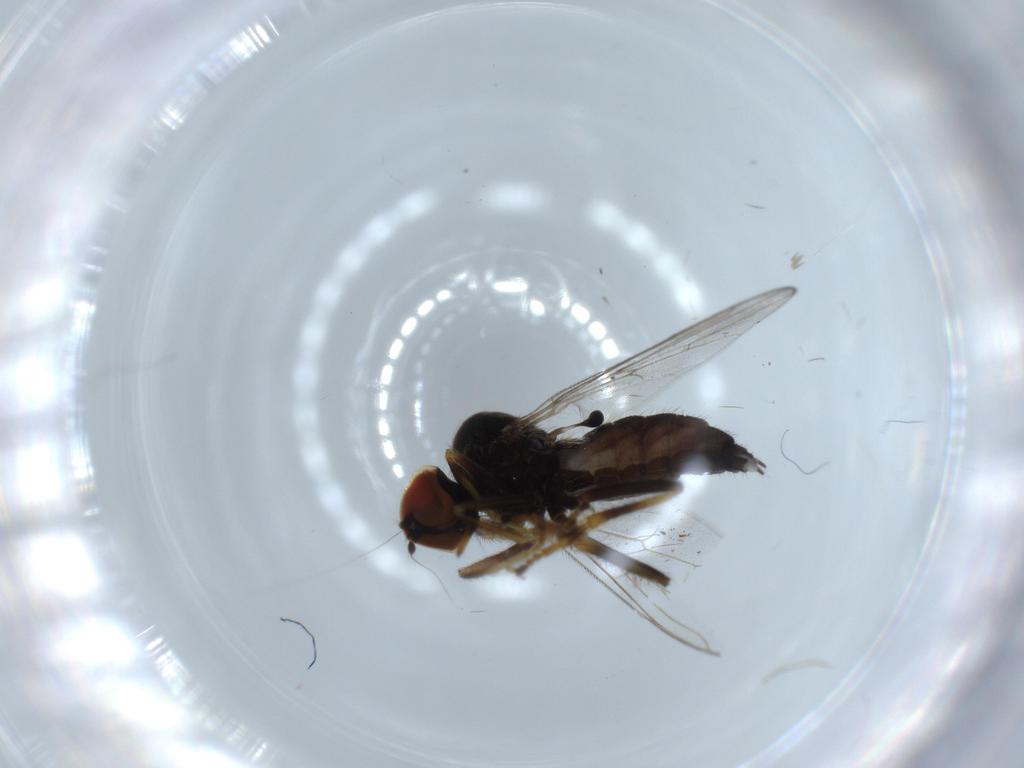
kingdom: Animalia
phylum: Arthropoda
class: Insecta
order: Diptera
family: Hybotidae
